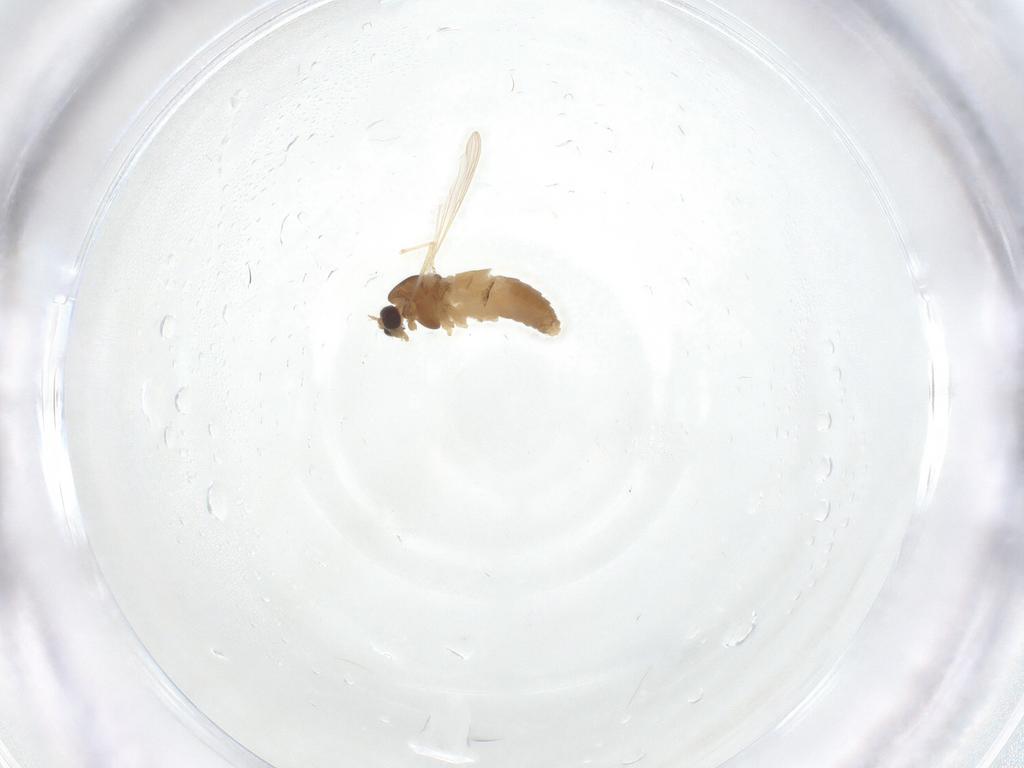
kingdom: Animalia
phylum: Arthropoda
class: Insecta
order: Diptera
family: Chironomidae
